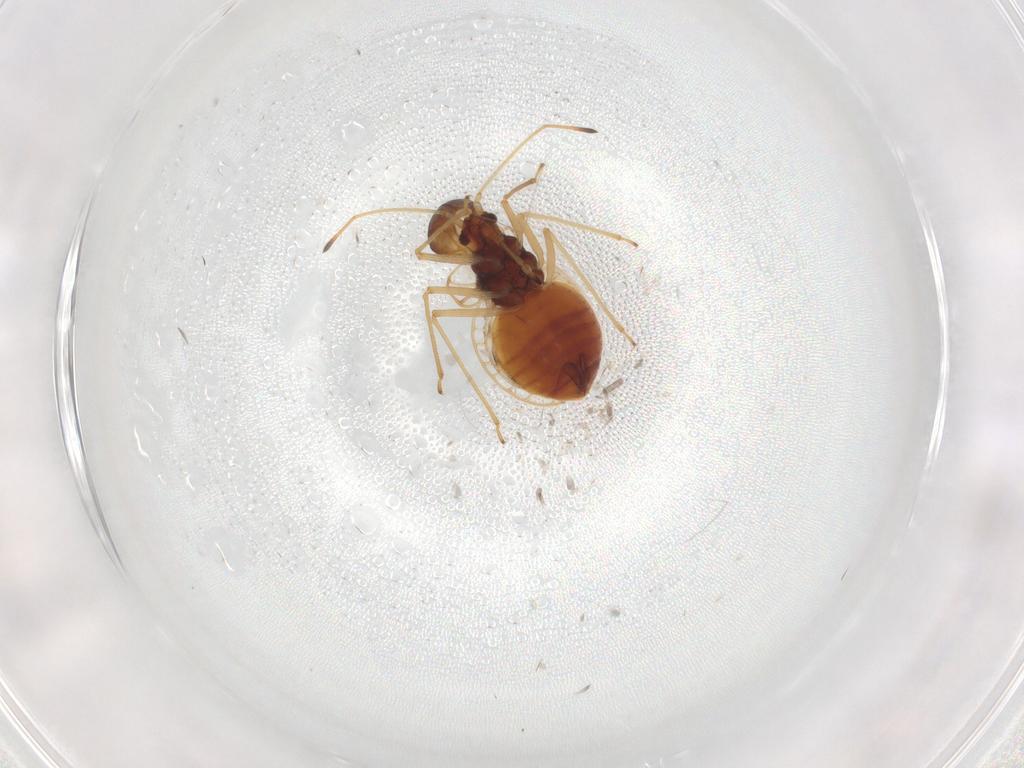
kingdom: Animalia
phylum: Arthropoda
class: Insecta
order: Hemiptera
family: Tingidae
